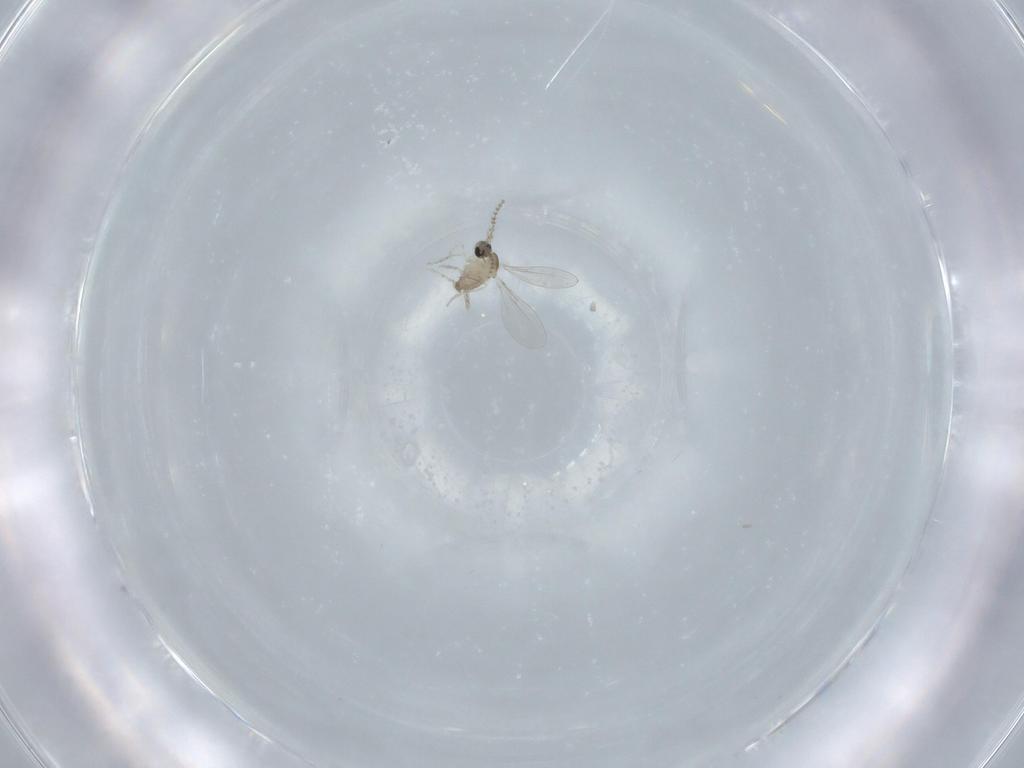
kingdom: Animalia
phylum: Arthropoda
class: Insecta
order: Diptera
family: Cecidomyiidae
